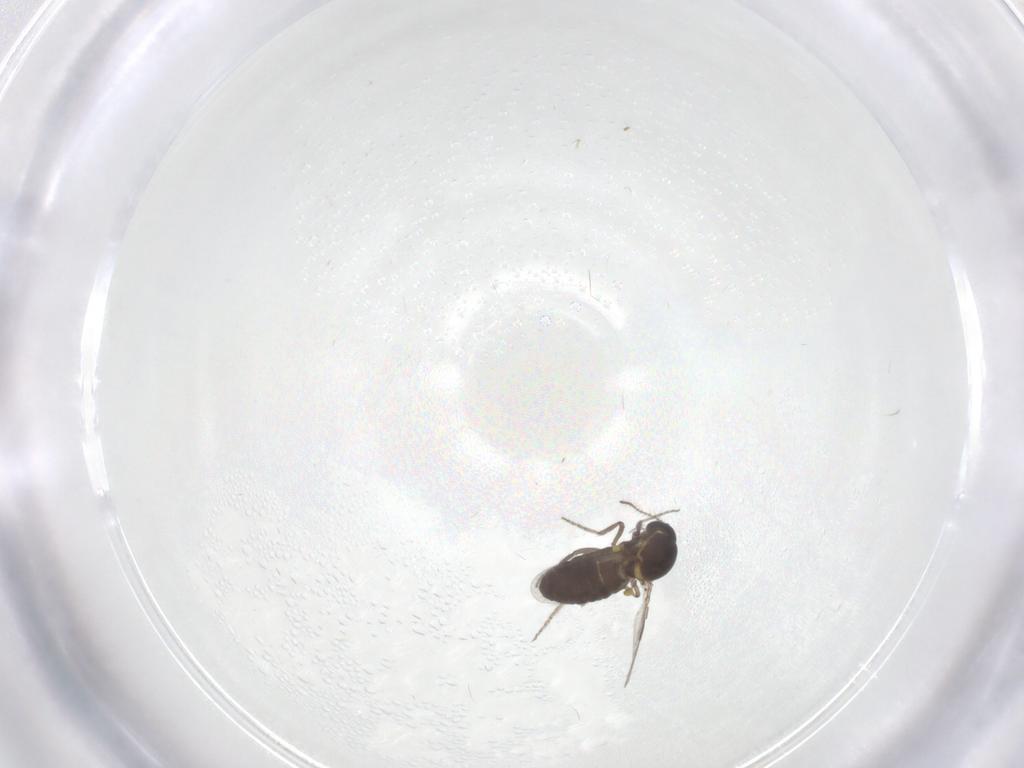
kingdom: Animalia
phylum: Arthropoda
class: Insecta
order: Diptera
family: Ceratopogonidae
